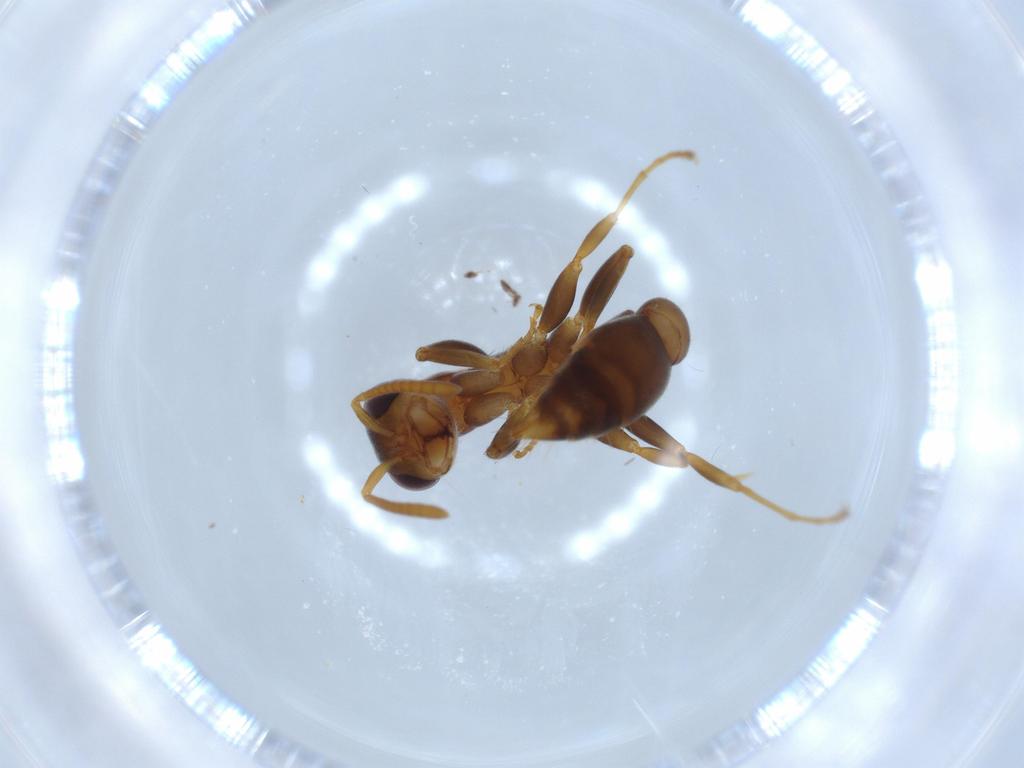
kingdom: Animalia
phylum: Arthropoda
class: Insecta
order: Hymenoptera
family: Formicidae
